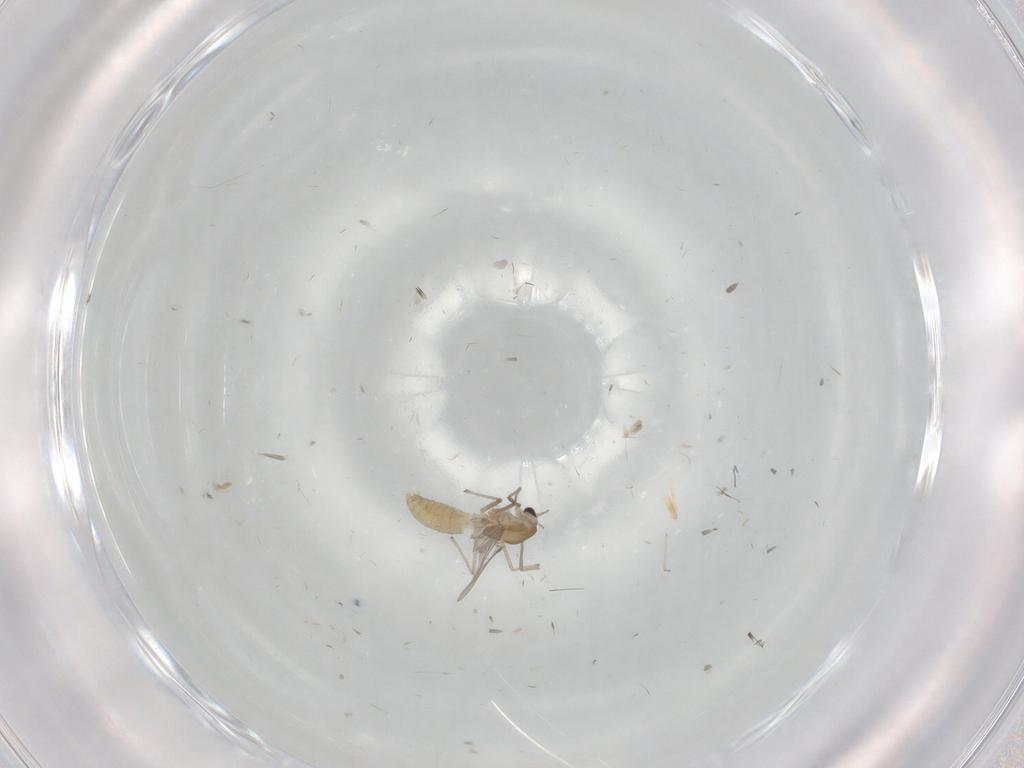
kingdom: Animalia
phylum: Arthropoda
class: Insecta
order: Diptera
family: Chironomidae
